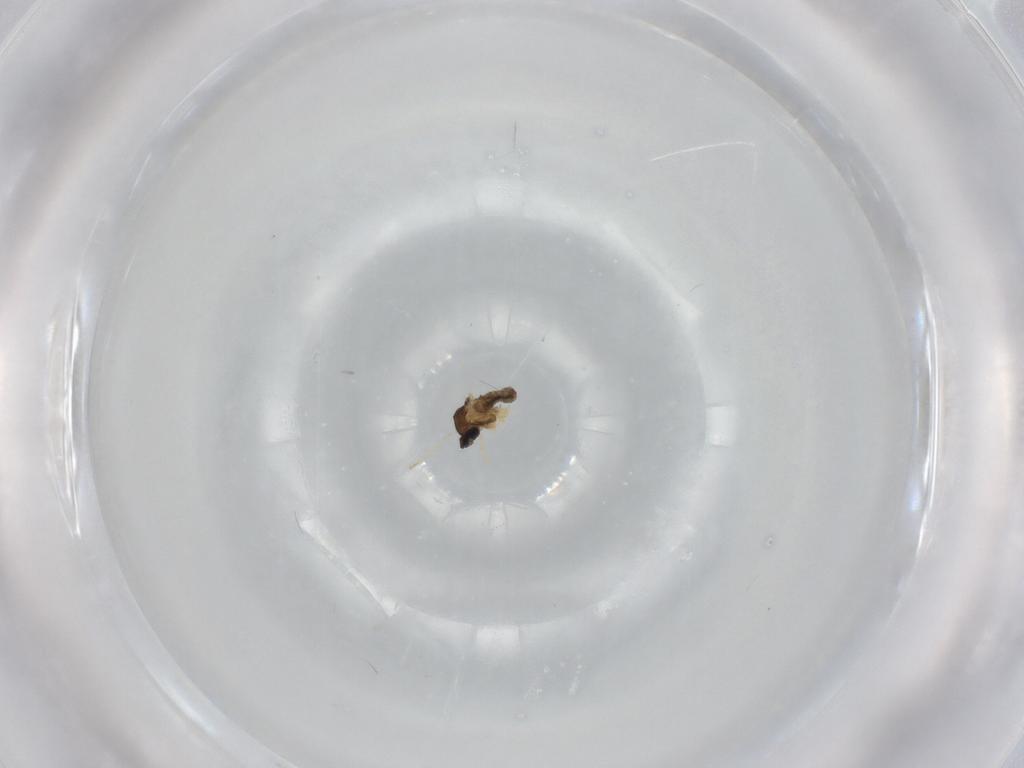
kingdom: Animalia
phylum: Arthropoda
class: Insecta
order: Diptera
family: Cecidomyiidae
